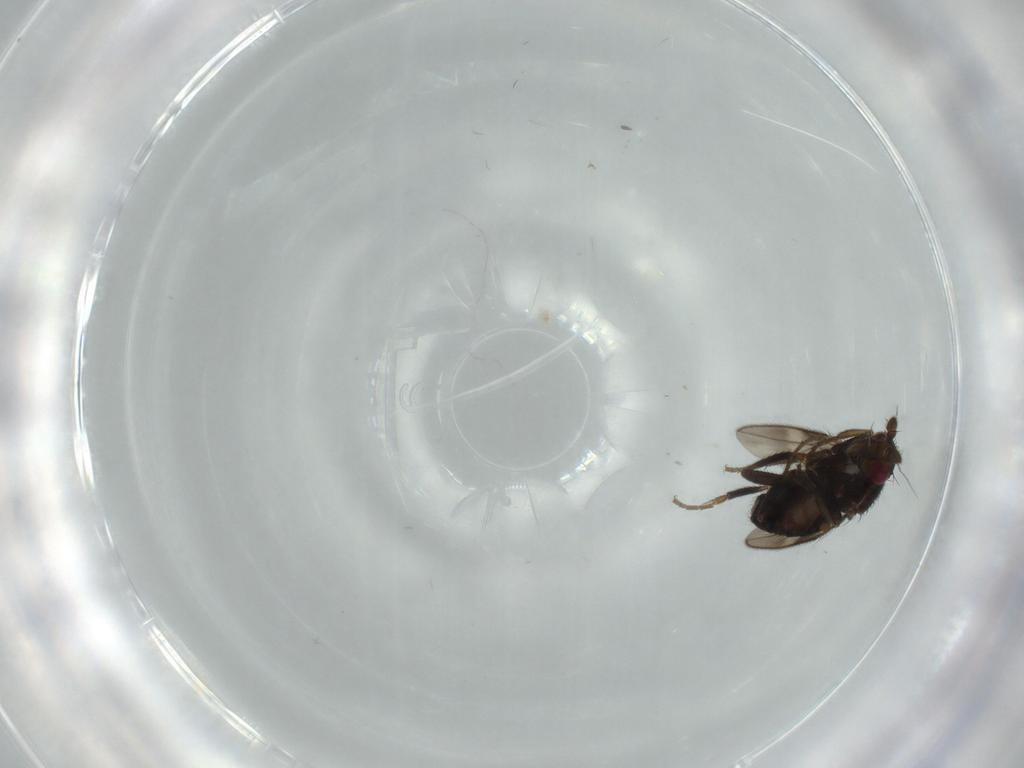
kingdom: Animalia
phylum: Arthropoda
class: Insecta
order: Diptera
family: Sphaeroceridae
